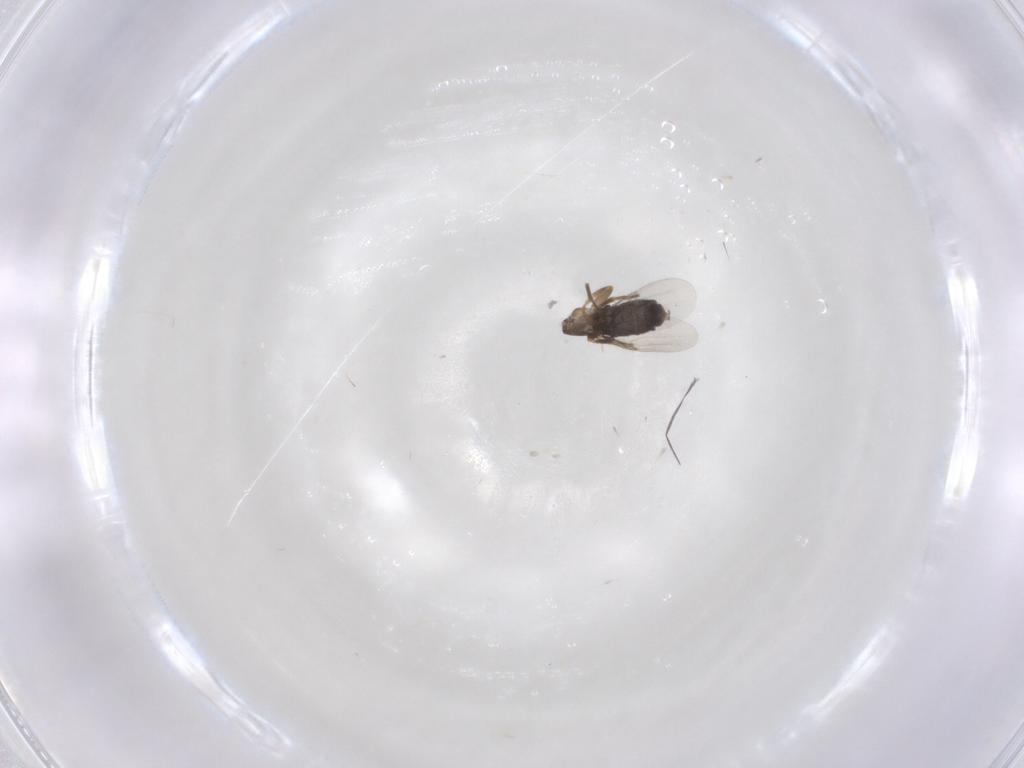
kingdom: Animalia
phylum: Arthropoda
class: Insecta
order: Diptera
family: Phoridae
